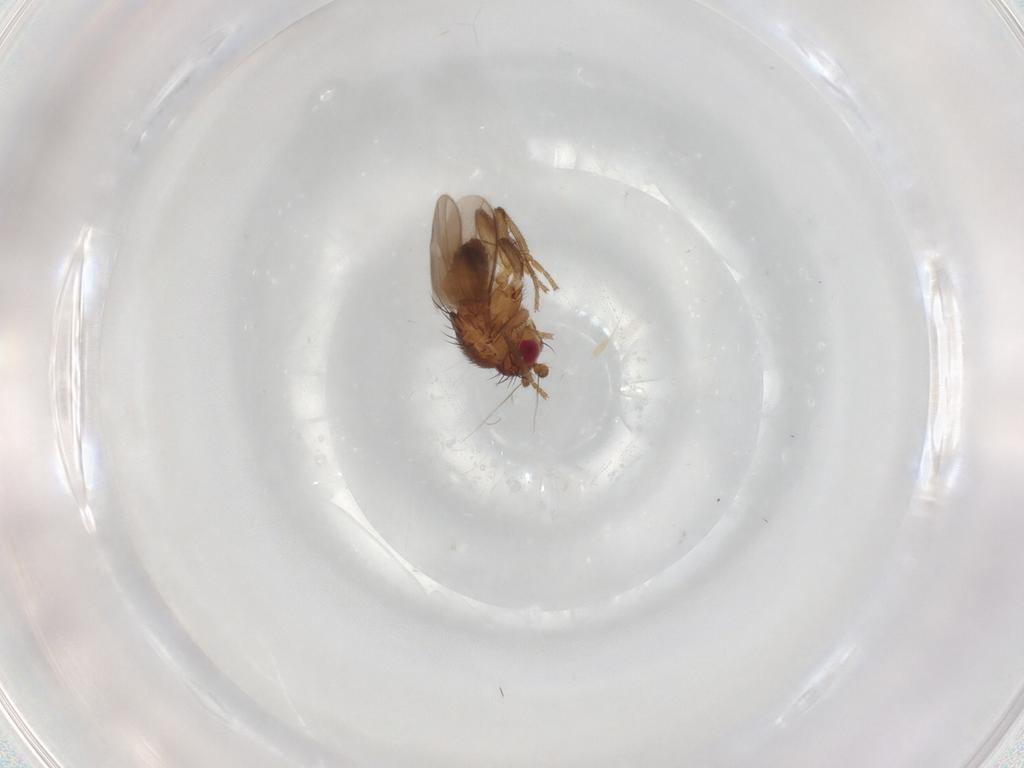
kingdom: Animalia
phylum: Arthropoda
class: Insecta
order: Diptera
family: Sphaeroceridae
